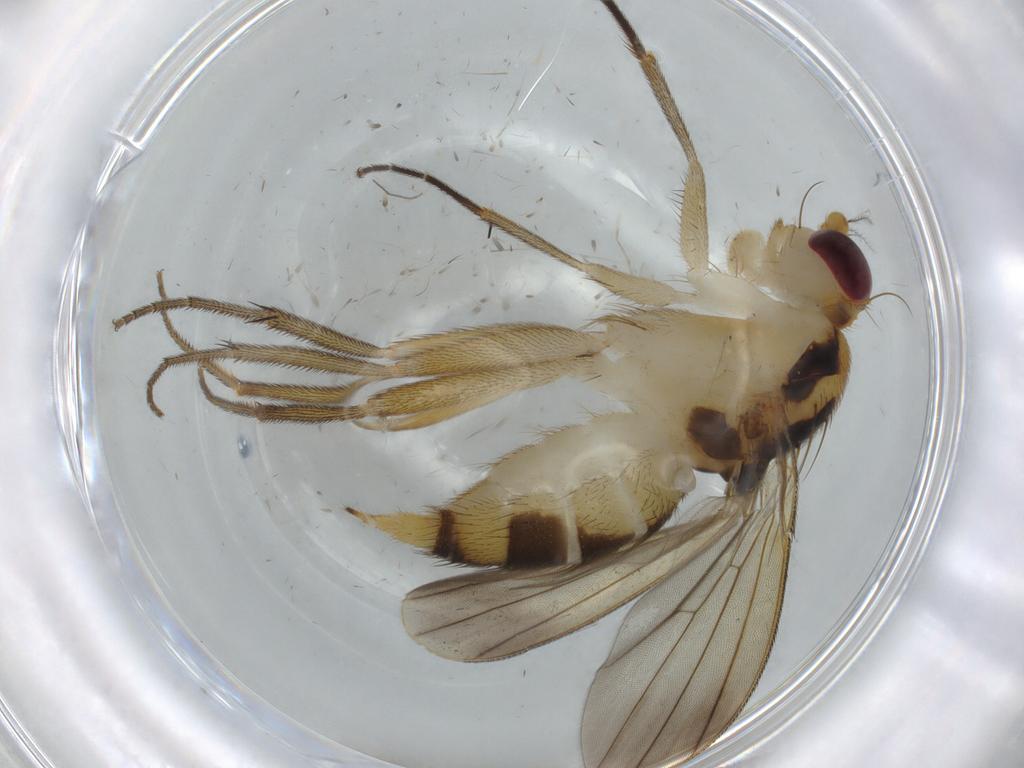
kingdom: Animalia
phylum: Arthropoda
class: Insecta
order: Diptera
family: Clusiidae
